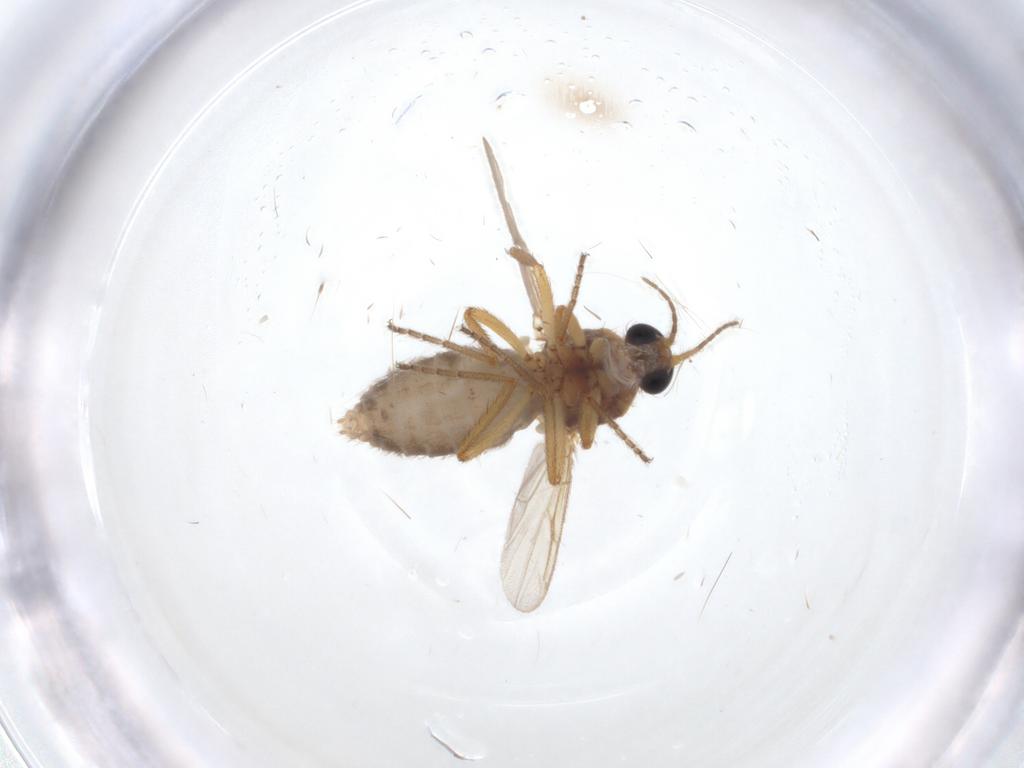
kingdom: Animalia
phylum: Arthropoda
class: Insecta
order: Diptera
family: Ceratopogonidae
